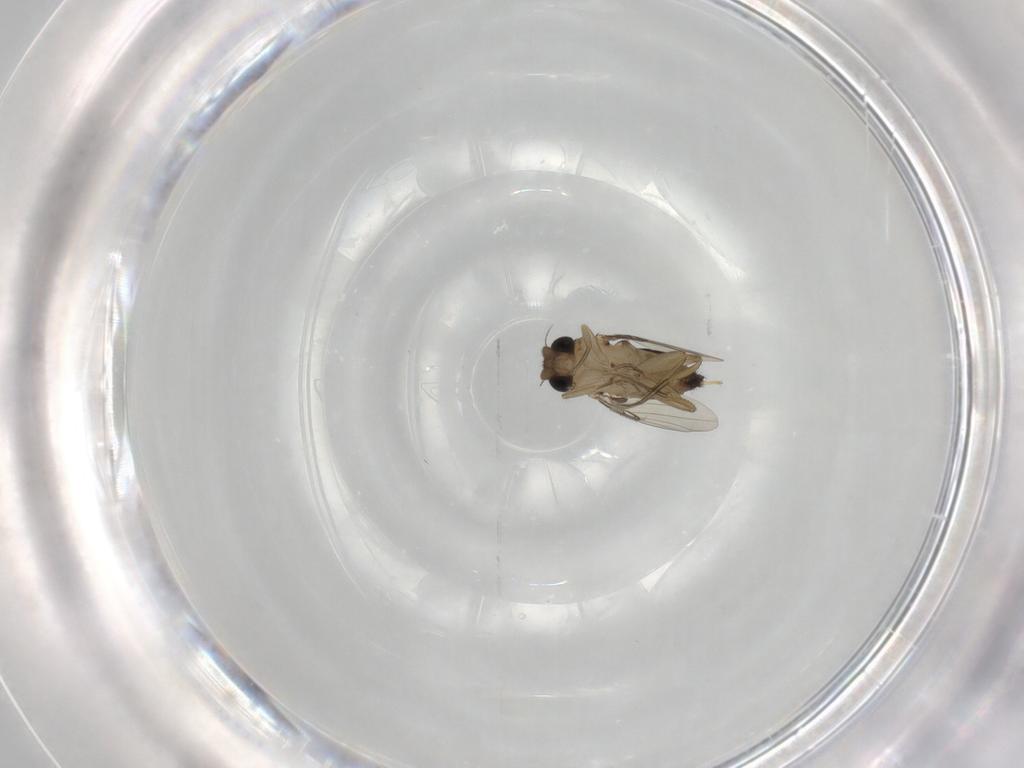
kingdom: Animalia
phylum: Arthropoda
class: Insecta
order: Diptera
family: Phoridae
